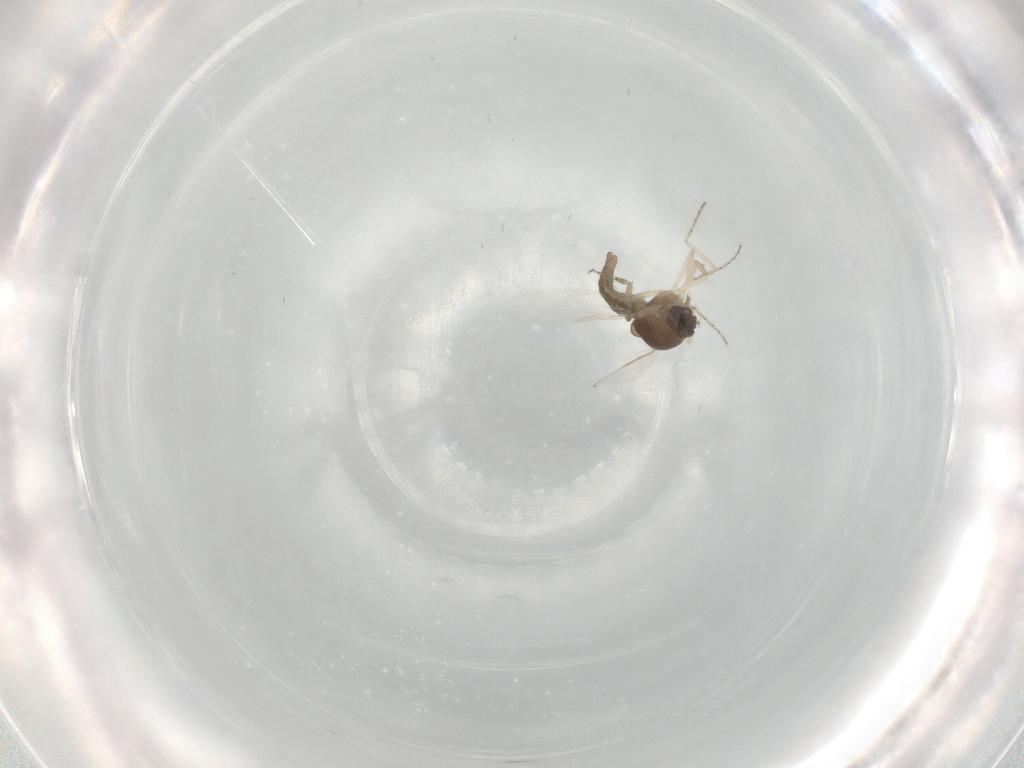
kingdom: Animalia
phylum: Arthropoda
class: Insecta
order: Diptera
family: Ceratopogonidae
